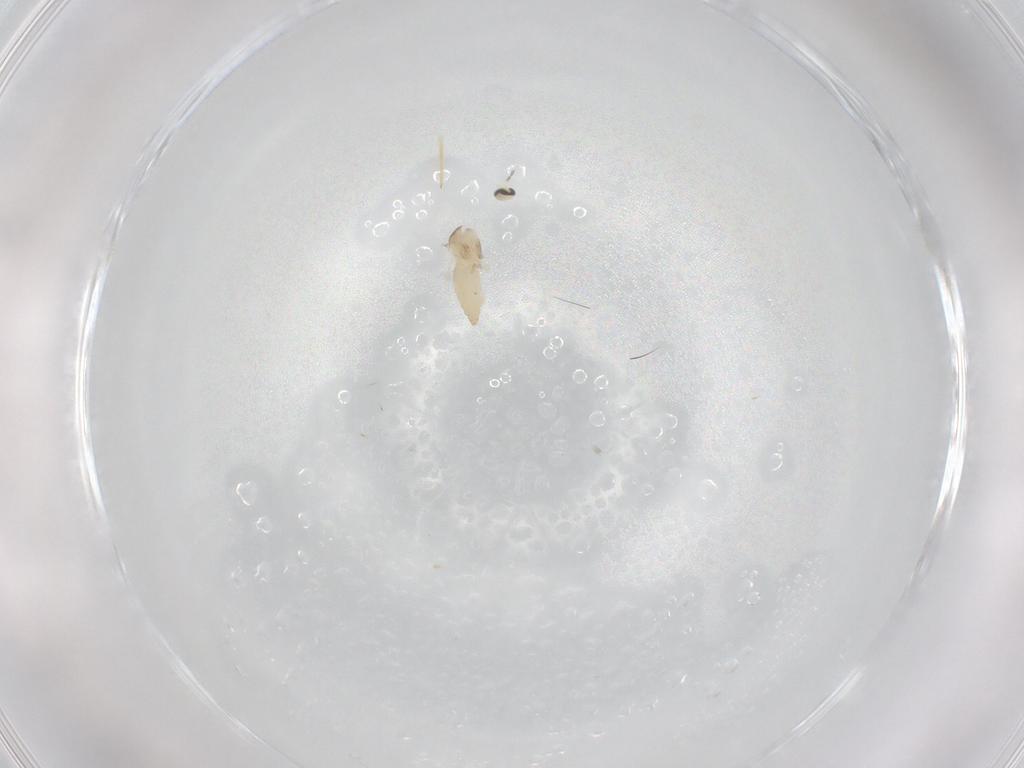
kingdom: Animalia
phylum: Arthropoda
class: Insecta
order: Diptera
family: Cecidomyiidae
